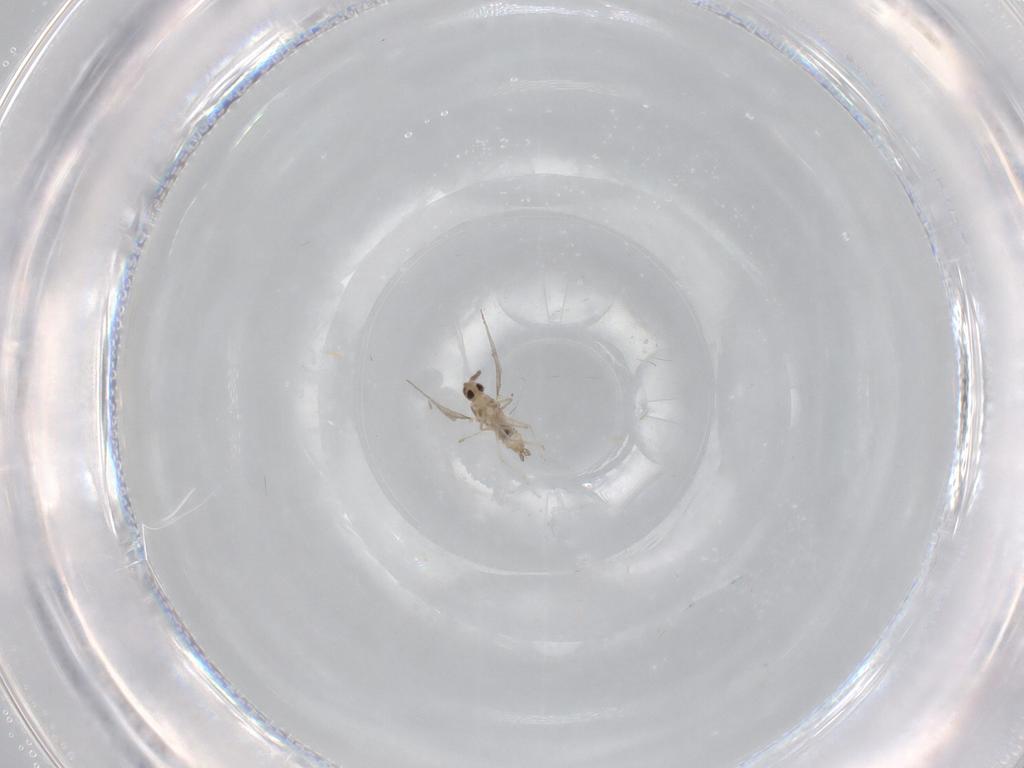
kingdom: Animalia
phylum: Arthropoda
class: Insecta
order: Diptera
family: Cecidomyiidae
